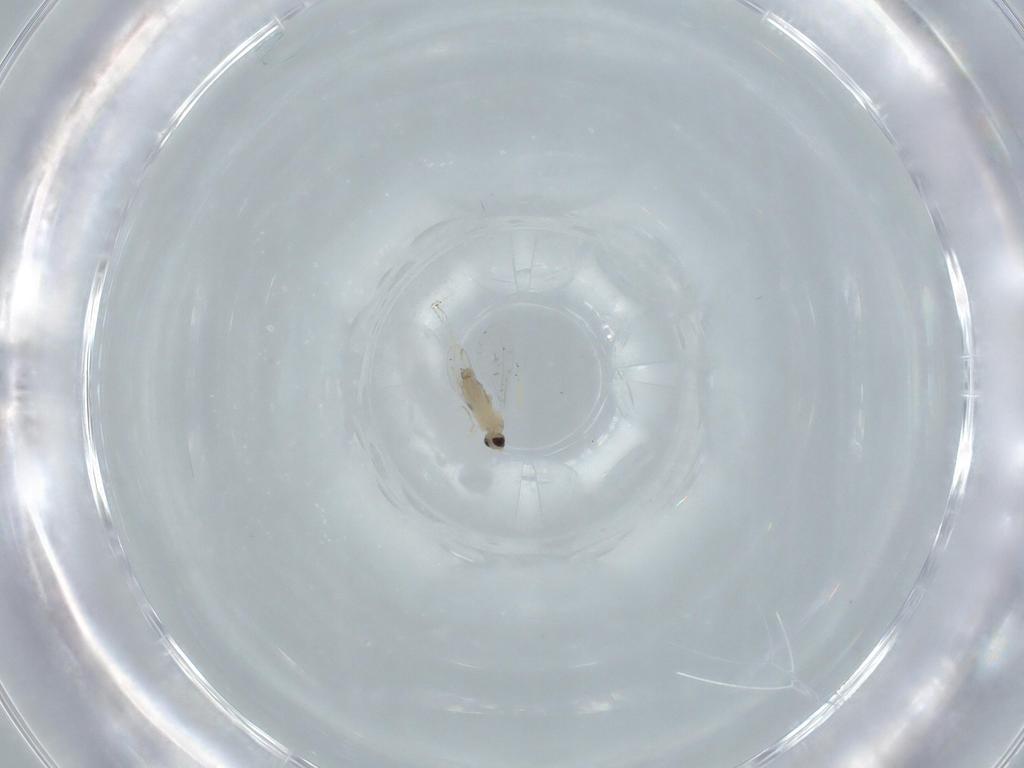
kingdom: Animalia
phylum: Arthropoda
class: Insecta
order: Diptera
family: Cecidomyiidae
